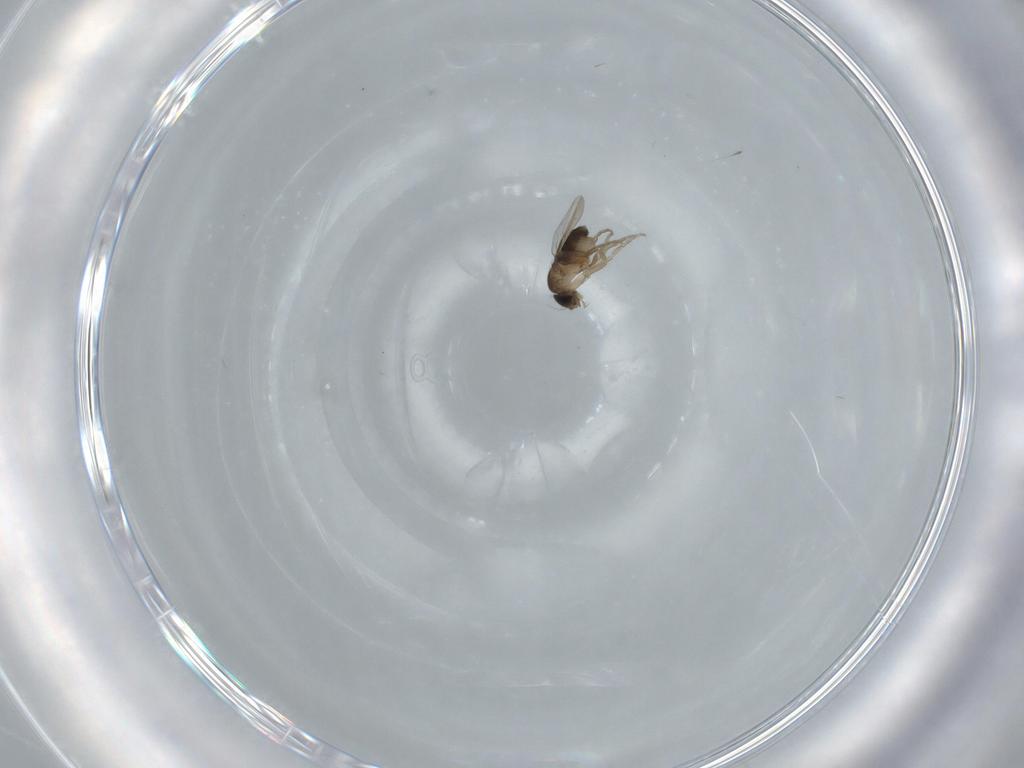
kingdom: Animalia
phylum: Arthropoda
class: Insecta
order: Diptera
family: Phoridae
